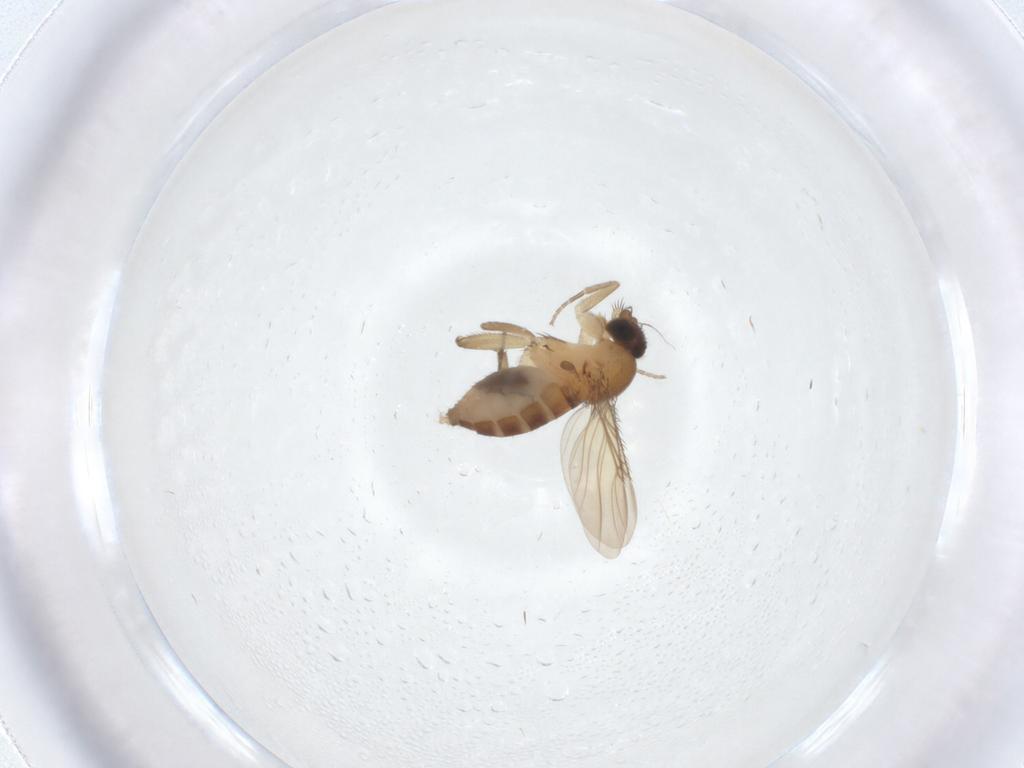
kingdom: Animalia
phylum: Arthropoda
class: Insecta
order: Diptera
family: Phoridae
